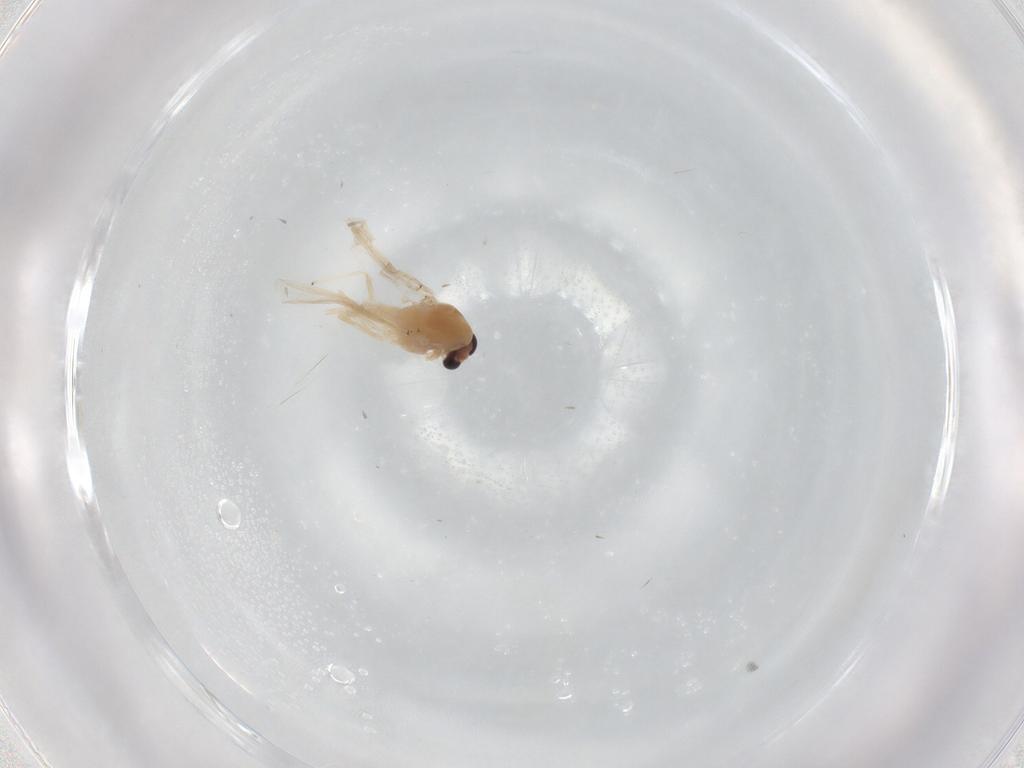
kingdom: Animalia
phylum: Arthropoda
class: Insecta
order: Diptera
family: Chironomidae
